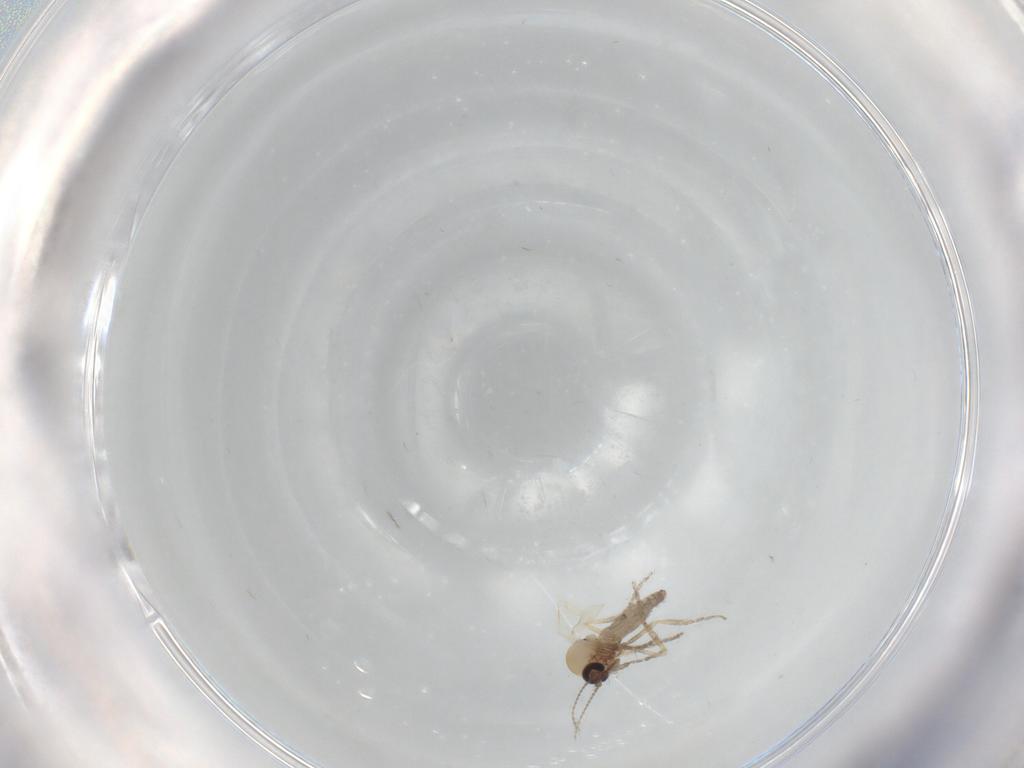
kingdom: Animalia
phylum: Arthropoda
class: Insecta
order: Diptera
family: Ceratopogonidae
